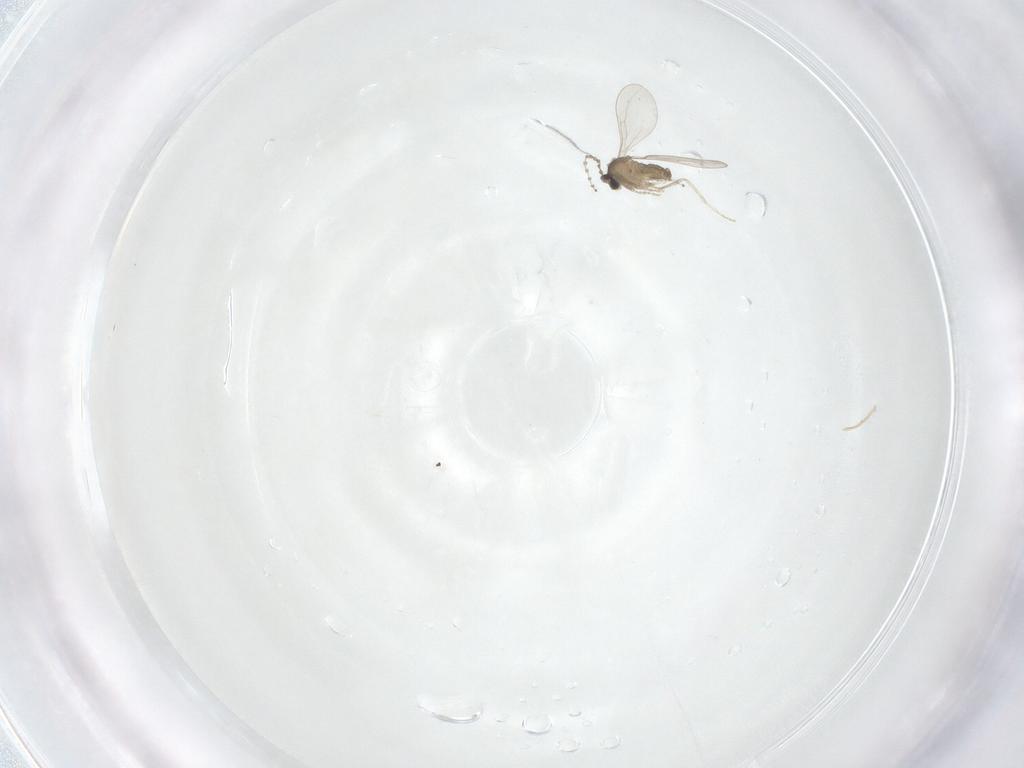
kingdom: Animalia
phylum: Arthropoda
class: Insecta
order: Diptera
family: Cecidomyiidae
